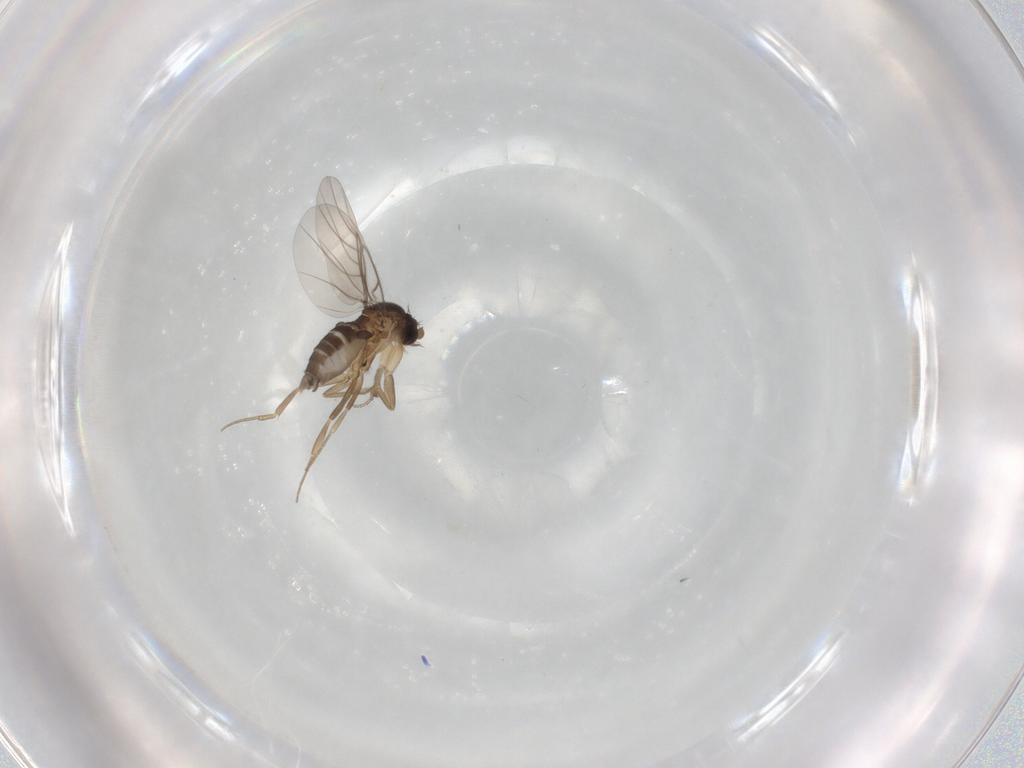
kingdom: Animalia
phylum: Arthropoda
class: Insecta
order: Diptera
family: Phoridae
